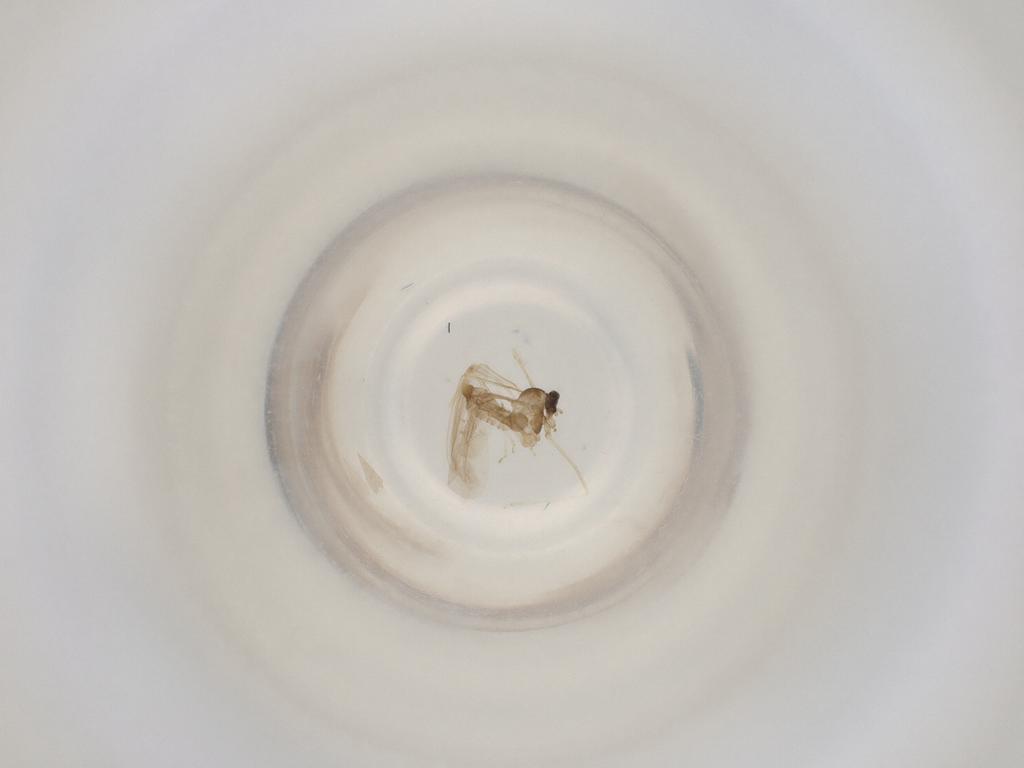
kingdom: Animalia
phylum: Arthropoda
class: Insecta
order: Diptera
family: Cecidomyiidae
